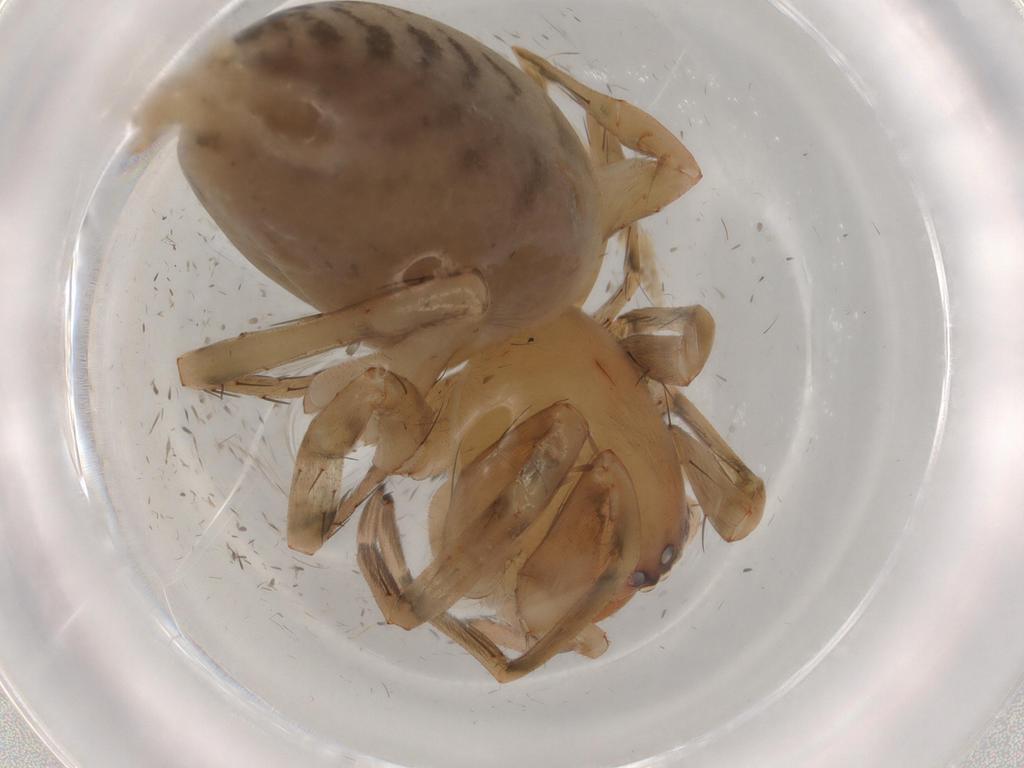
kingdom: Animalia
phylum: Arthropoda
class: Arachnida
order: Araneae
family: Anyphaenidae
